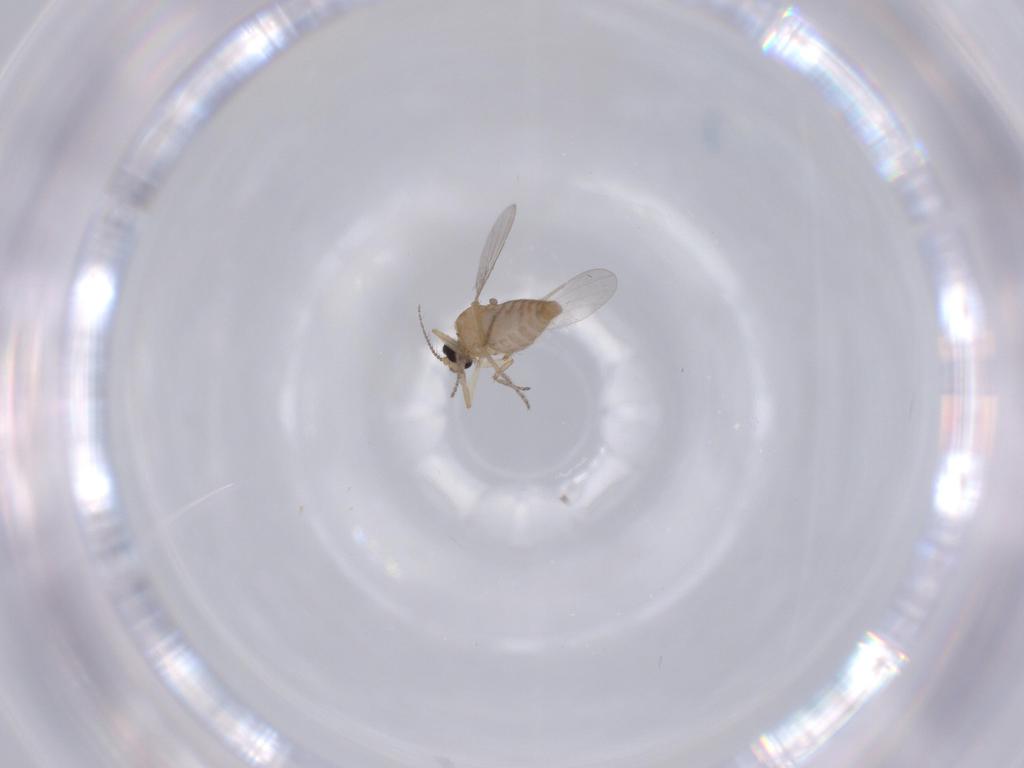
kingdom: Animalia
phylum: Arthropoda
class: Insecta
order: Diptera
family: Ceratopogonidae
